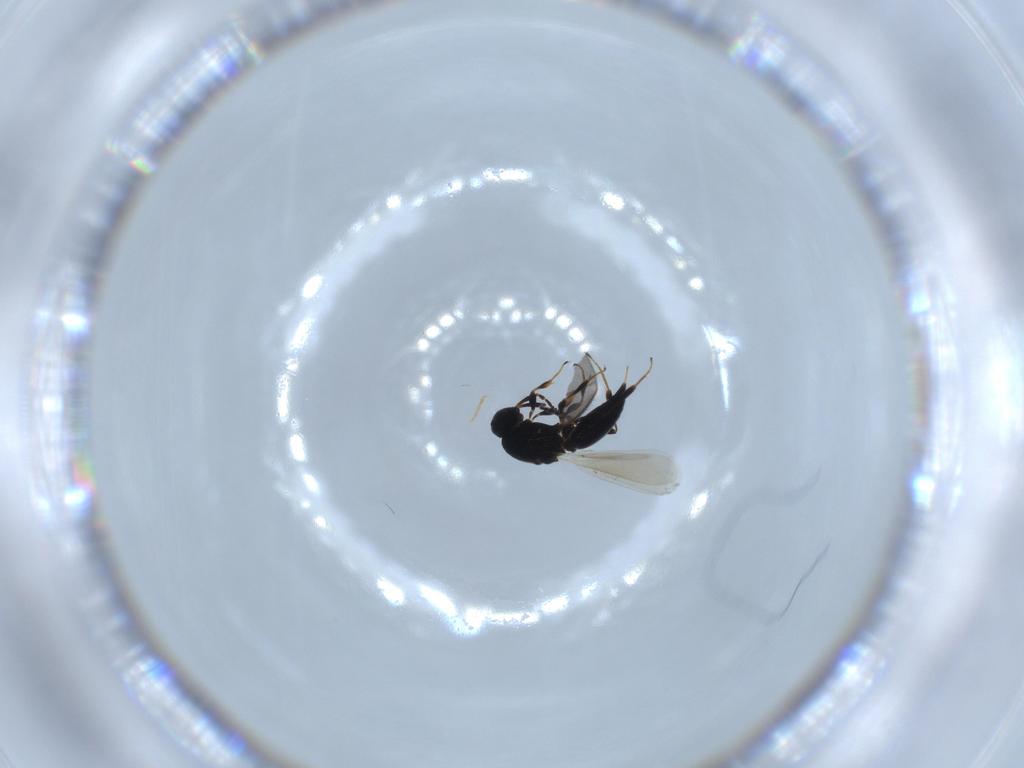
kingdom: Animalia
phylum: Arthropoda
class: Insecta
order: Hymenoptera
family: Platygastridae
